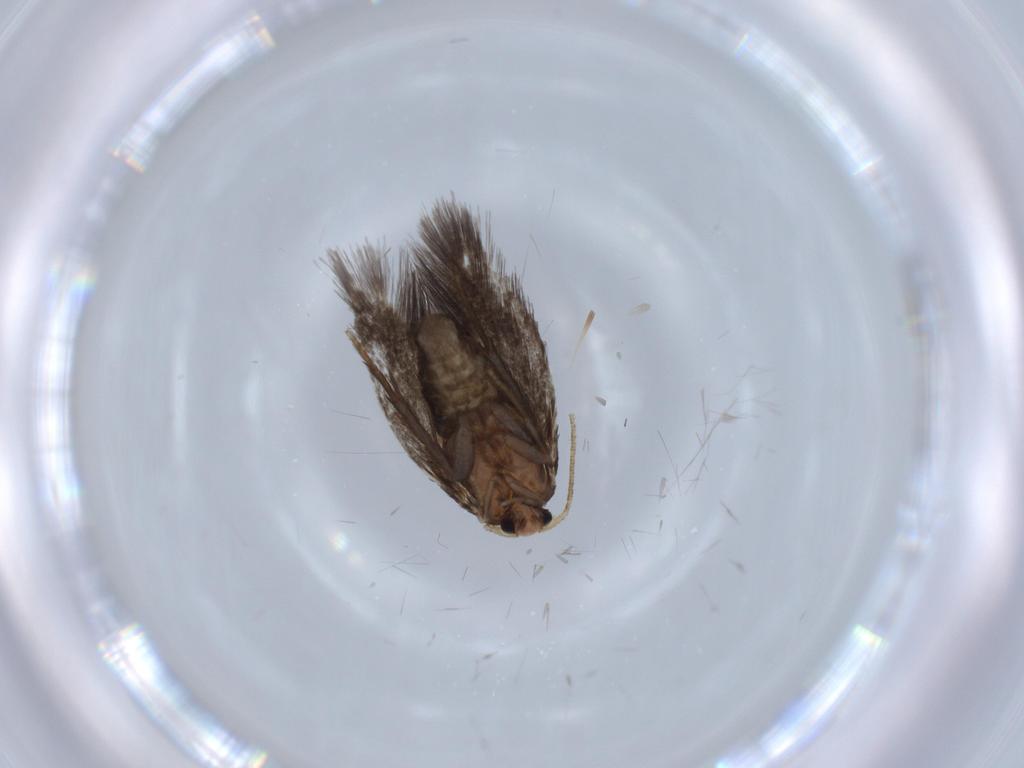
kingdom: Animalia
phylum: Arthropoda
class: Insecta
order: Lepidoptera
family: Nepticulidae
